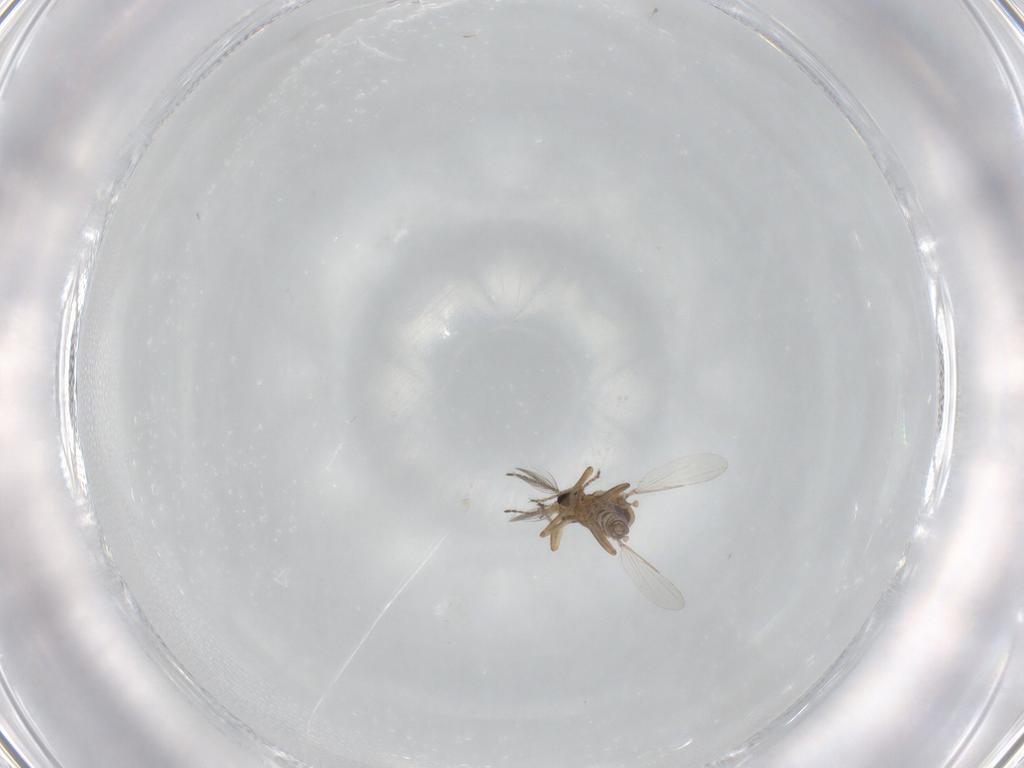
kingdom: Animalia
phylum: Arthropoda
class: Insecta
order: Diptera
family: Ceratopogonidae
